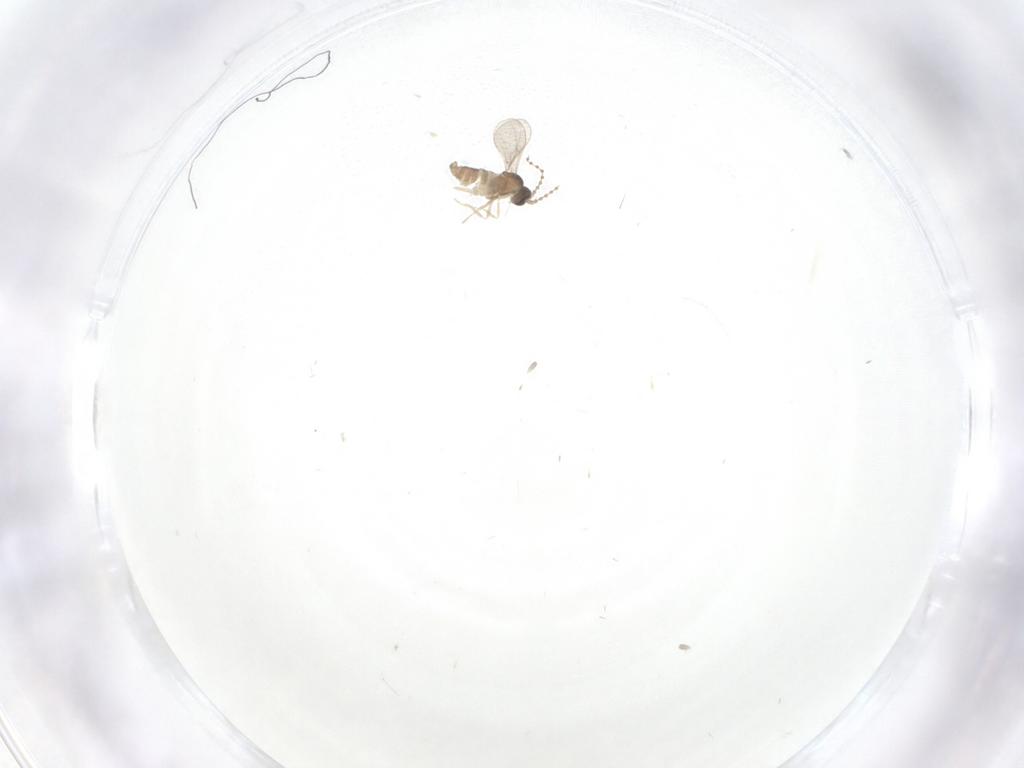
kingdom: Animalia
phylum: Arthropoda
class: Insecta
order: Diptera
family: Cecidomyiidae
